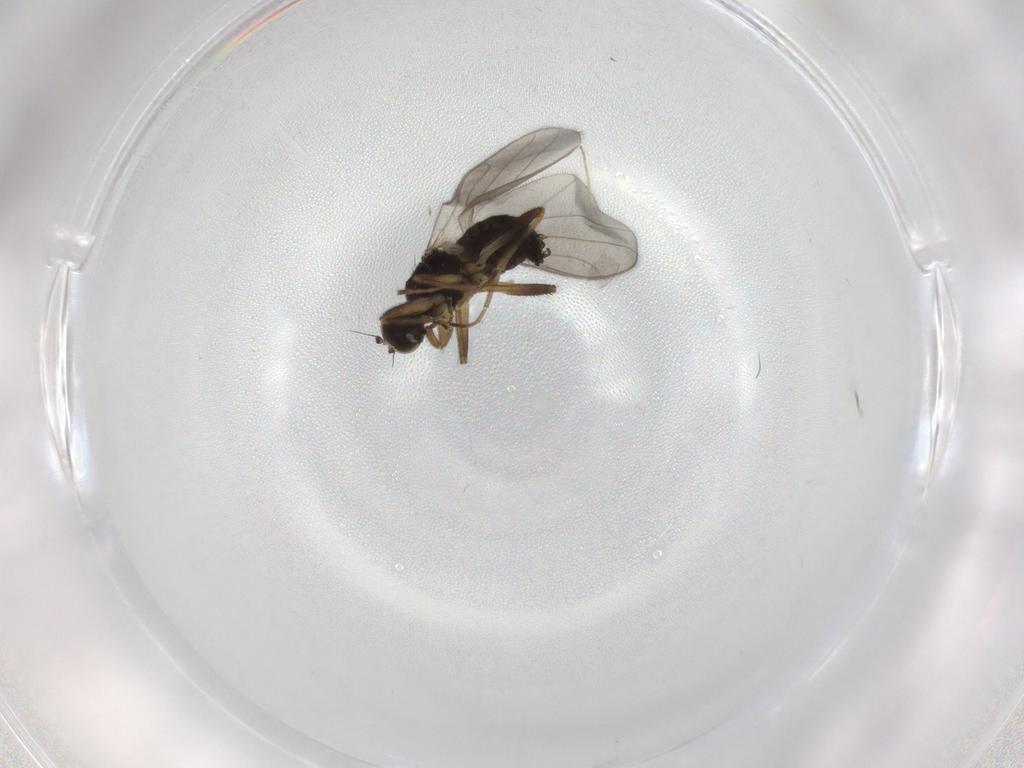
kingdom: Animalia
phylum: Arthropoda
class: Insecta
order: Diptera
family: Hybotidae
